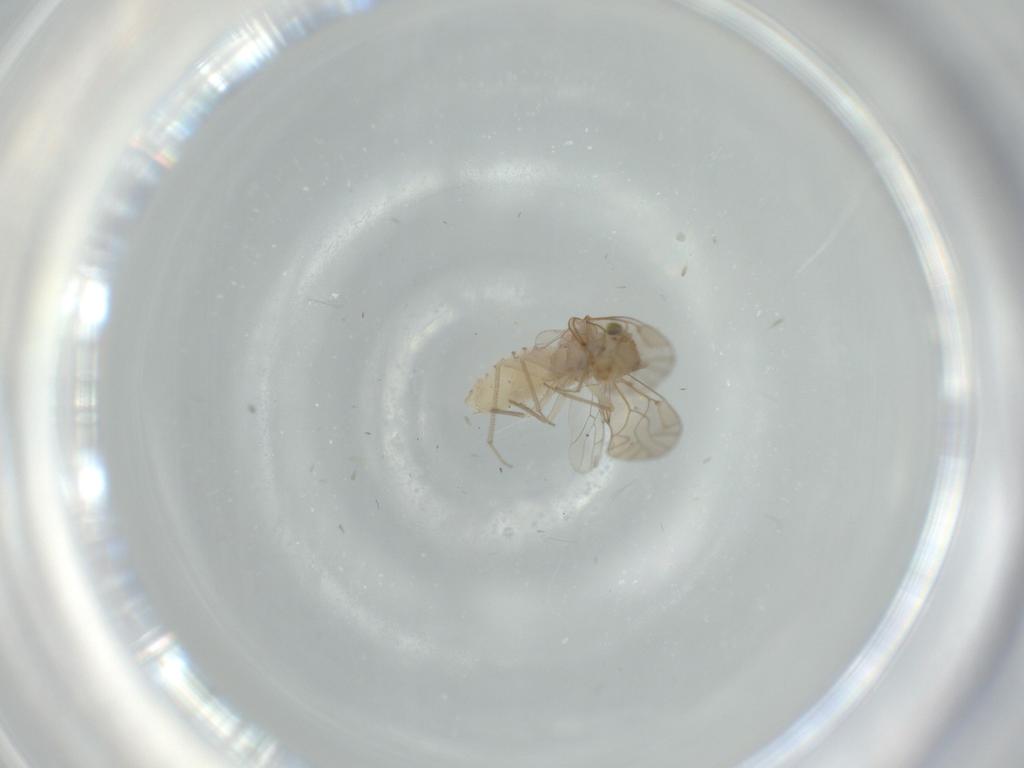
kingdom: Animalia
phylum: Arthropoda
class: Insecta
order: Psocodea
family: Lachesillidae
